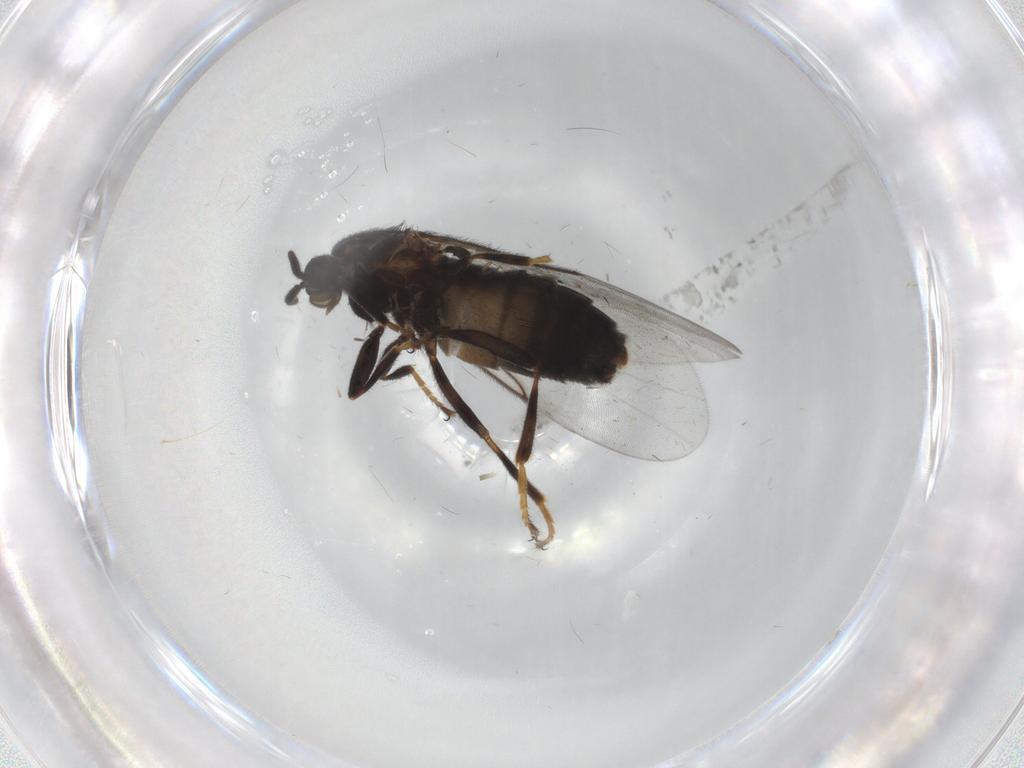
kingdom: Animalia
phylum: Arthropoda
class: Insecta
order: Diptera
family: Scatopsidae
